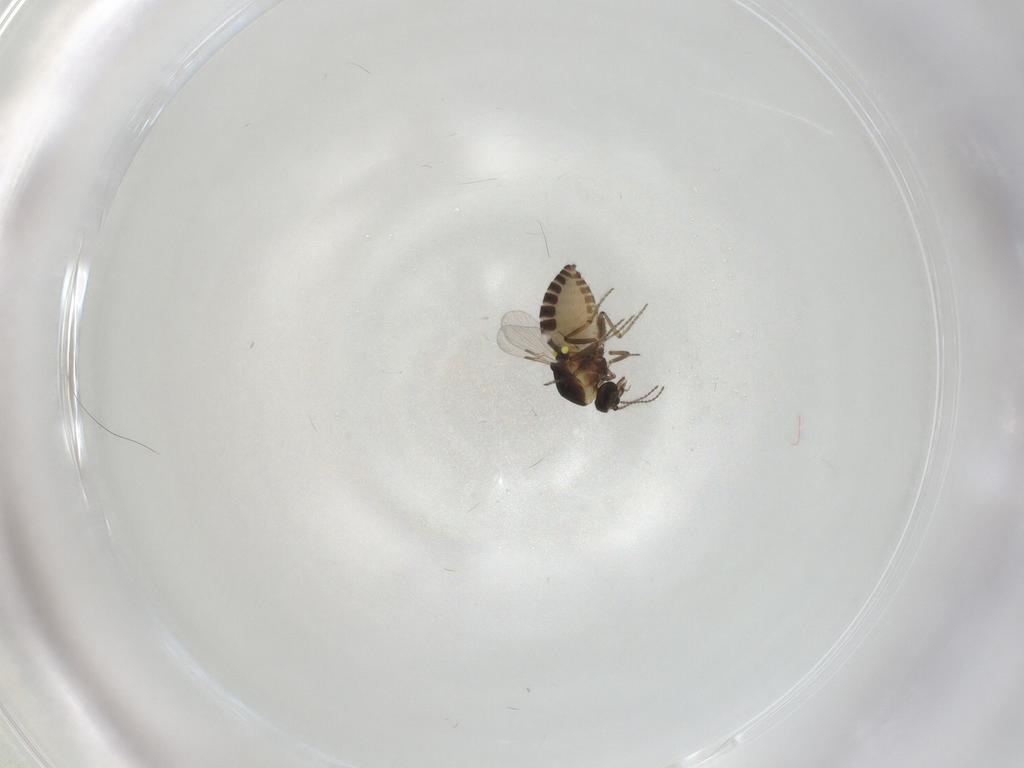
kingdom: Animalia
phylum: Arthropoda
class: Insecta
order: Diptera
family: Ceratopogonidae
